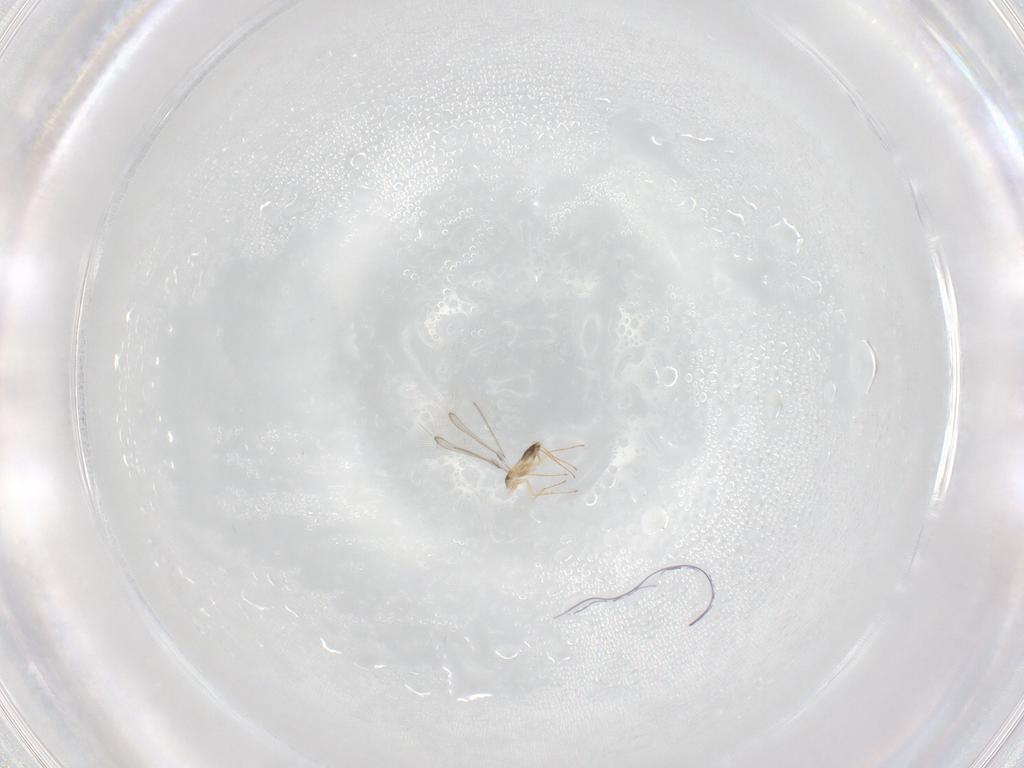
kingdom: Animalia
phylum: Arthropoda
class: Insecta
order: Hymenoptera
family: Mymaridae
